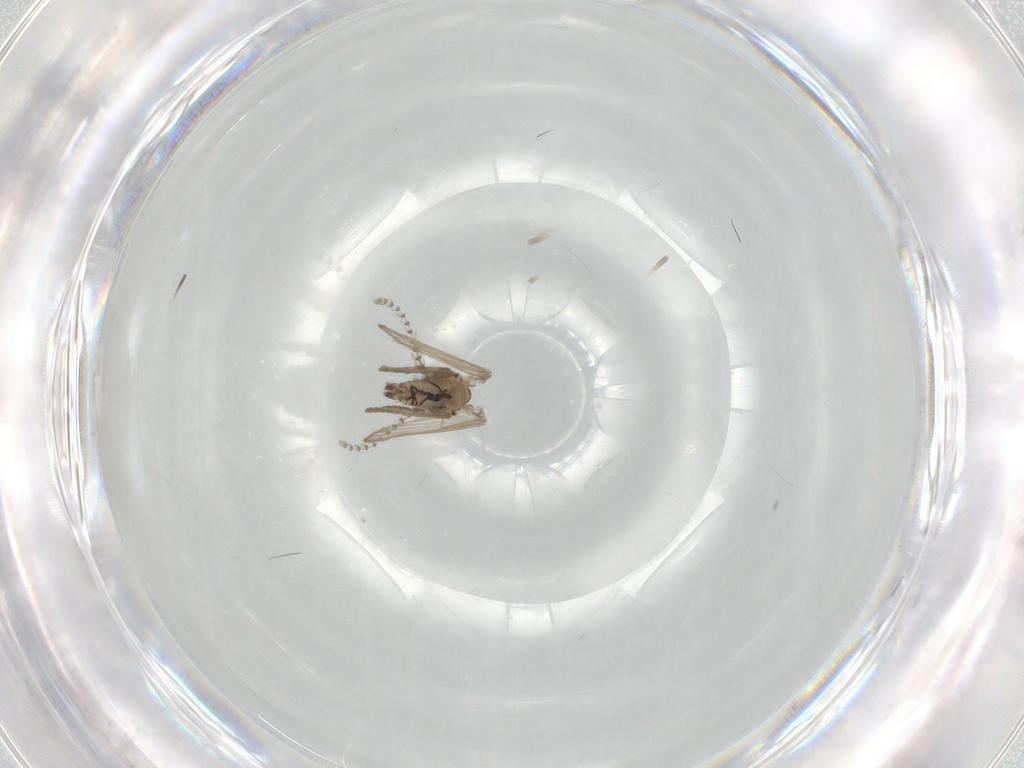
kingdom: Animalia
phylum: Arthropoda
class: Insecta
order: Diptera
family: Psychodidae
